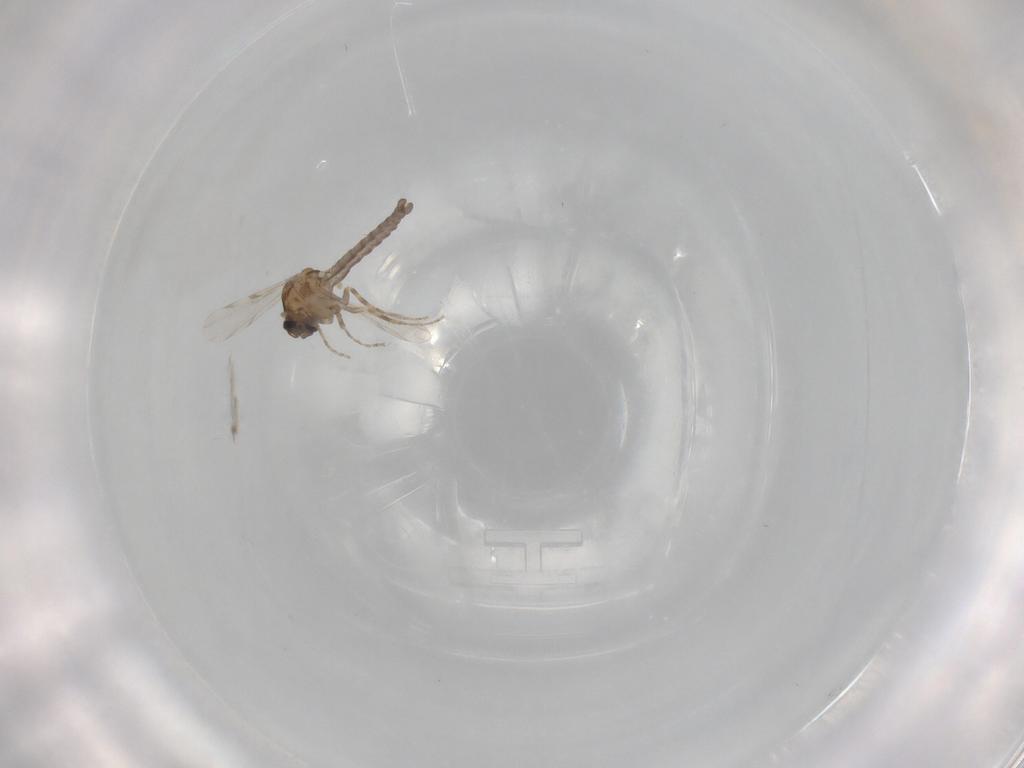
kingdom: Animalia
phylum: Arthropoda
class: Insecta
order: Diptera
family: Ceratopogonidae
